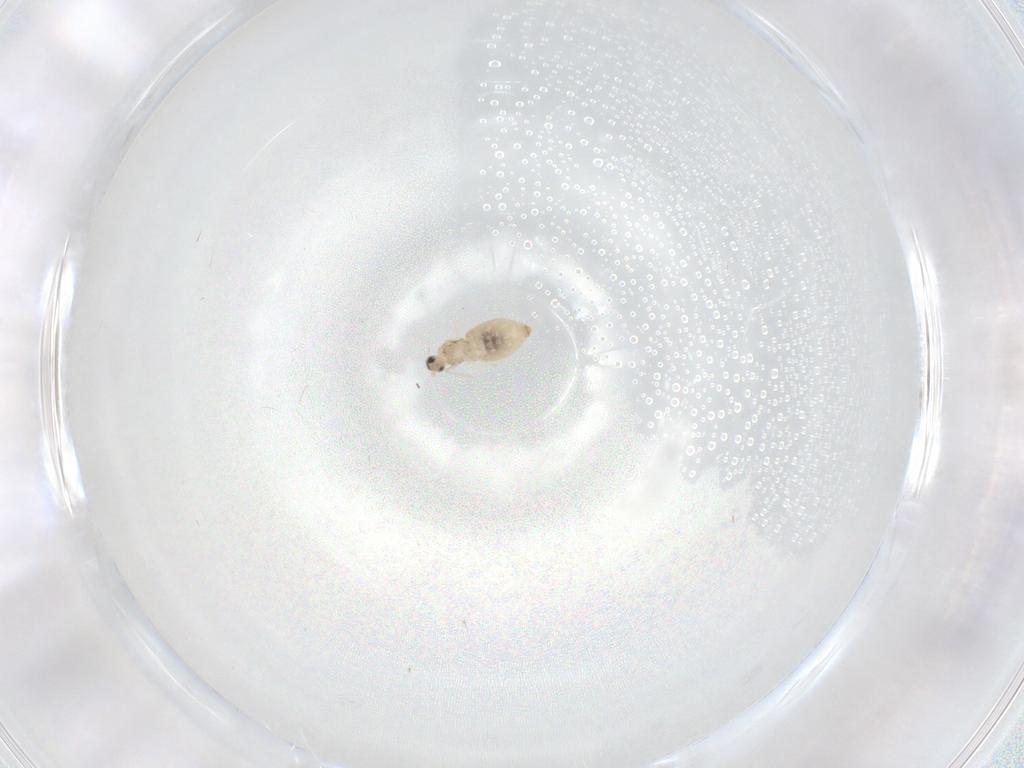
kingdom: Animalia
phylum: Arthropoda
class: Insecta
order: Diptera
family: Ceratopogonidae
